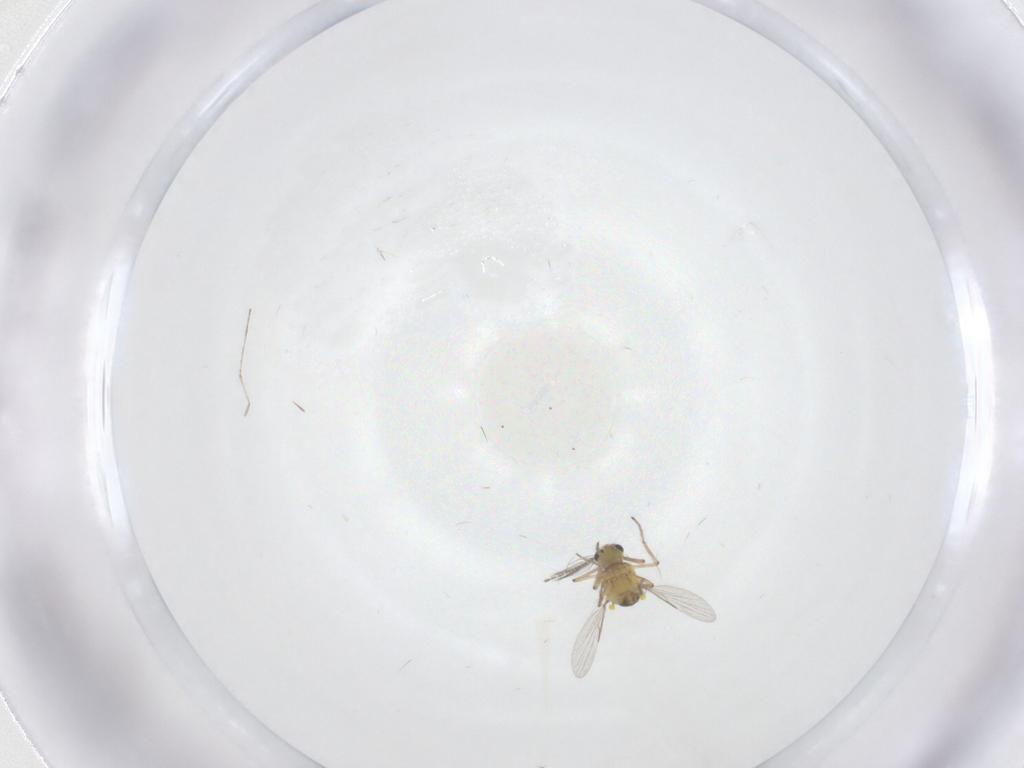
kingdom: Animalia
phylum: Arthropoda
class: Insecta
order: Diptera
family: Ceratopogonidae
